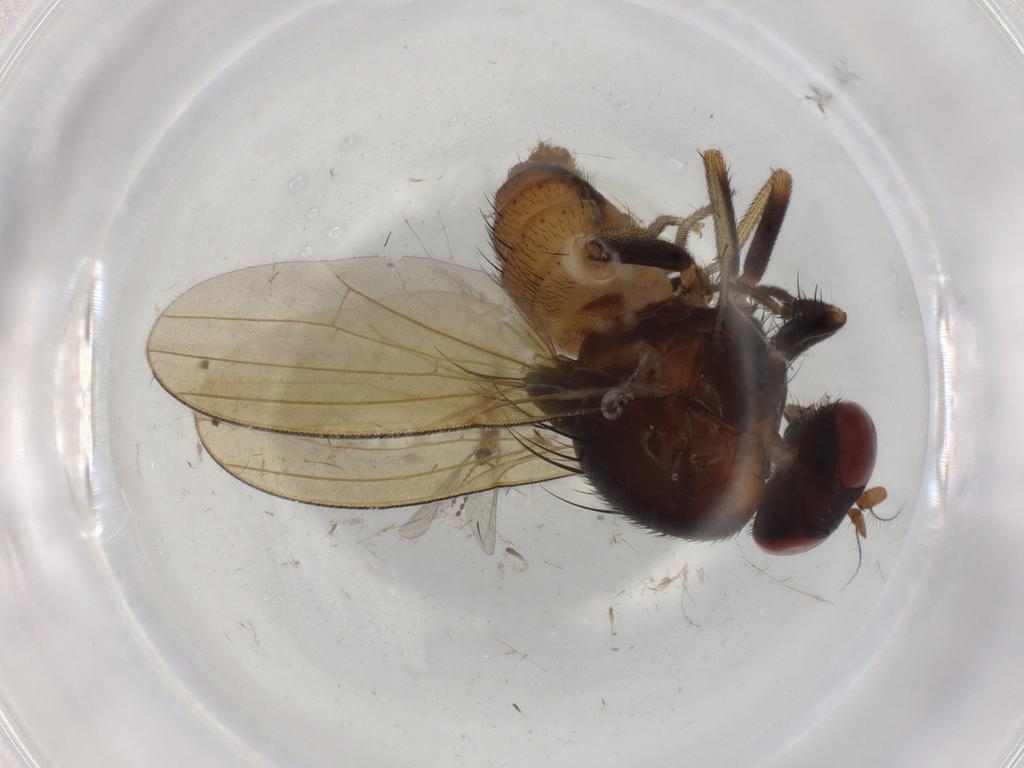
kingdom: Animalia
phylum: Arthropoda
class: Insecta
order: Diptera
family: Lauxaniidae
